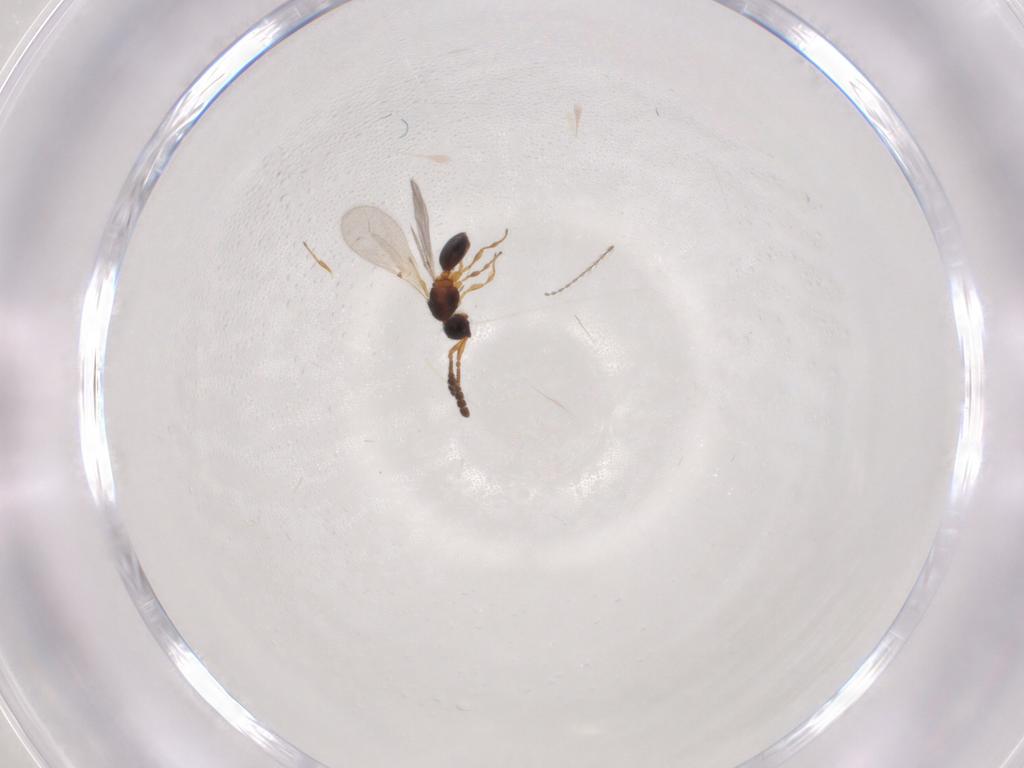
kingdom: Animalia
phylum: Arthropoda
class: Insecta
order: Hymenoptera
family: Diapriidae
